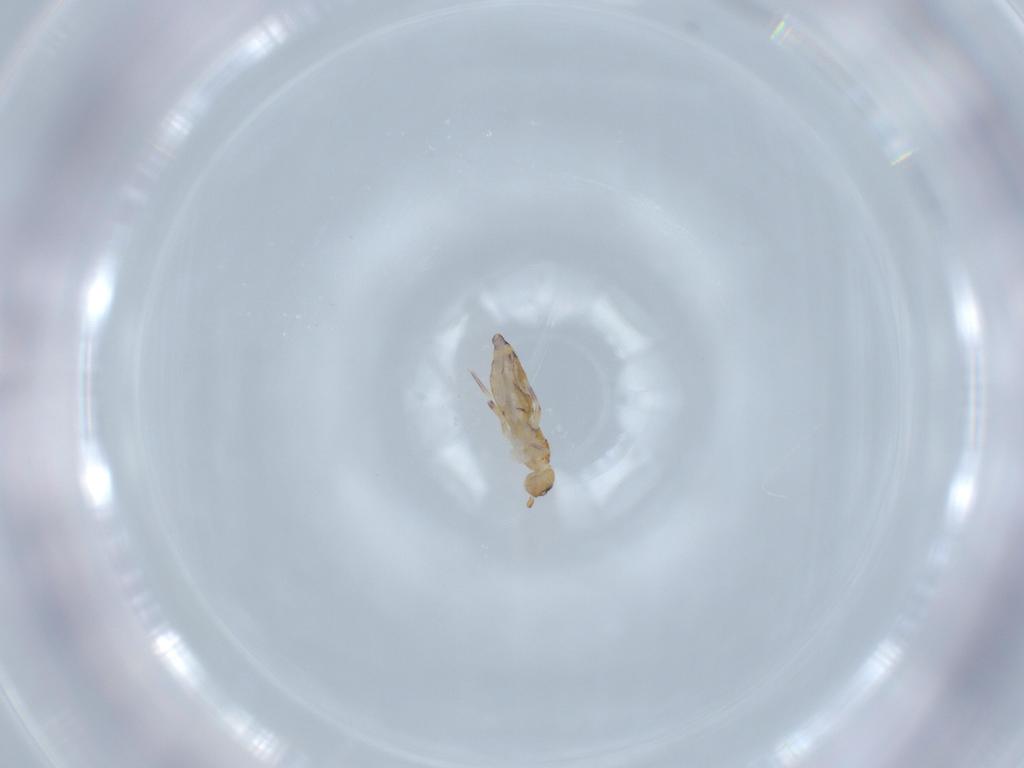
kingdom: Animalia
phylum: Arthropoda
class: Collembola
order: Entomobryomorpha
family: Entomobryidae
